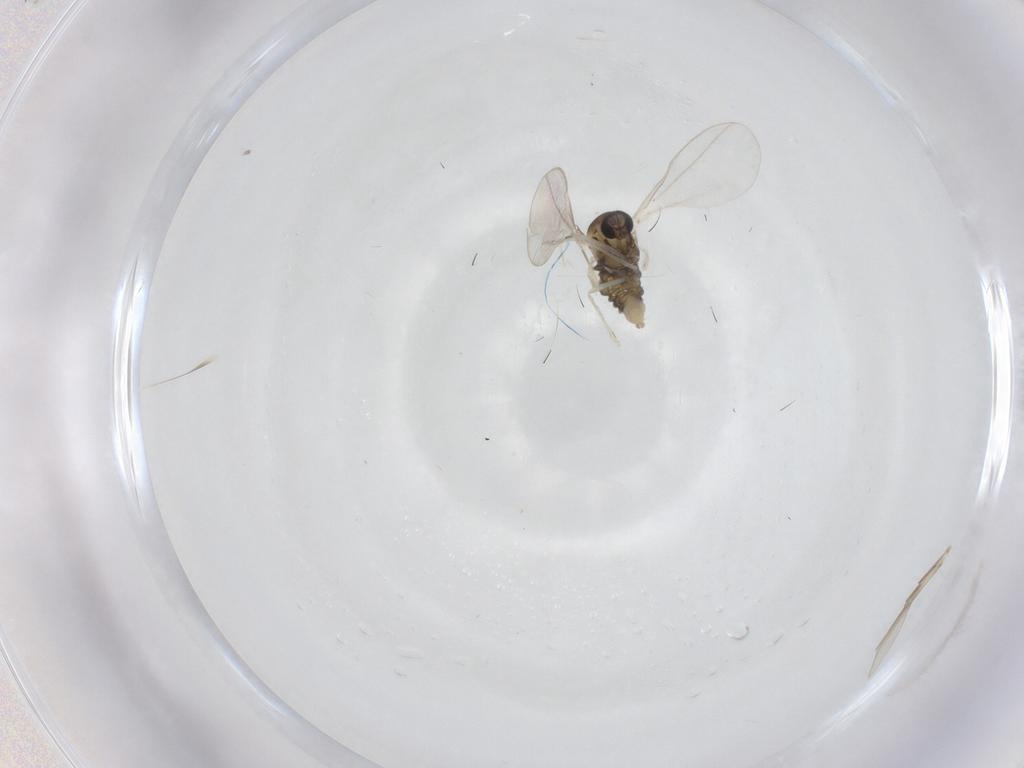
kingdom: Animalia
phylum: Arthropoda
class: Insecta
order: Diptera
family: Cecidomyiidae
